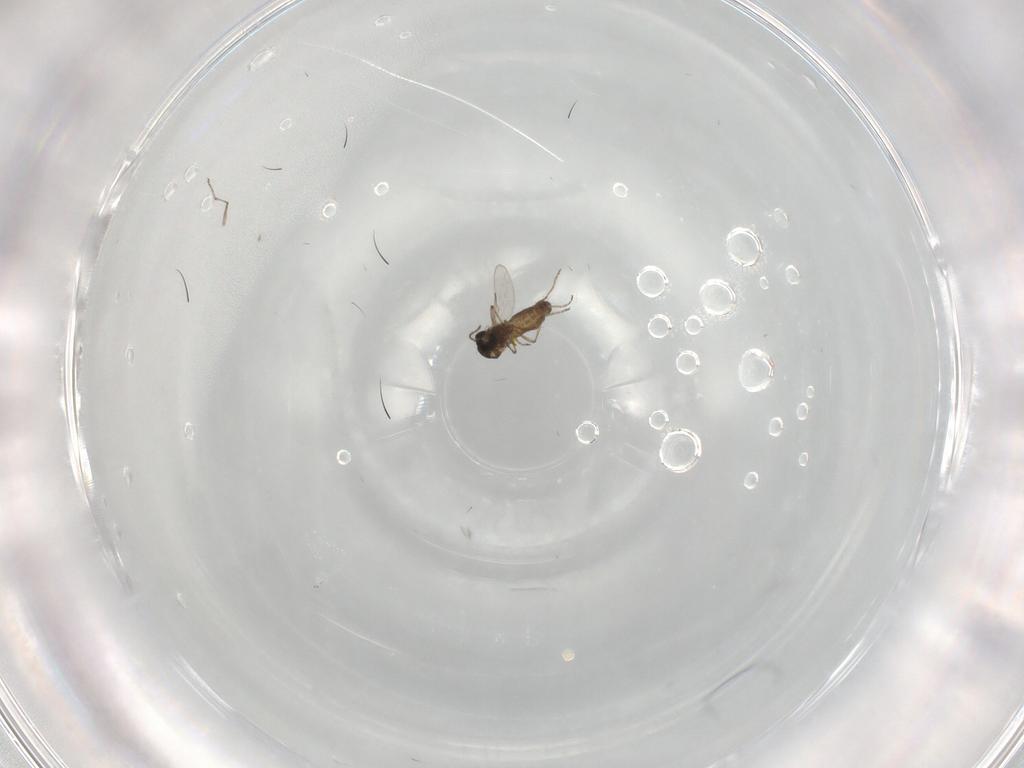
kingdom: Animalia
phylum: Arthropoda
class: Insecta
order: Diptera
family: Ceratopogonidae
